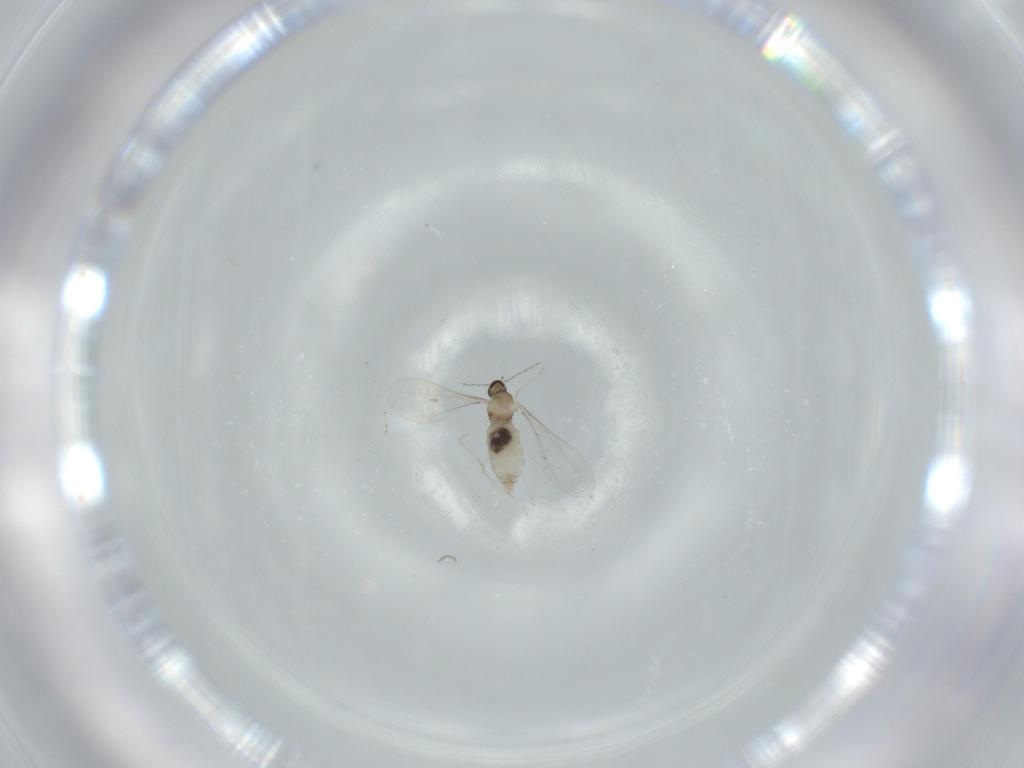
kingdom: Animalia
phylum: Arthropoda
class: Insecta
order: Diptera
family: Cecidomyiidae
